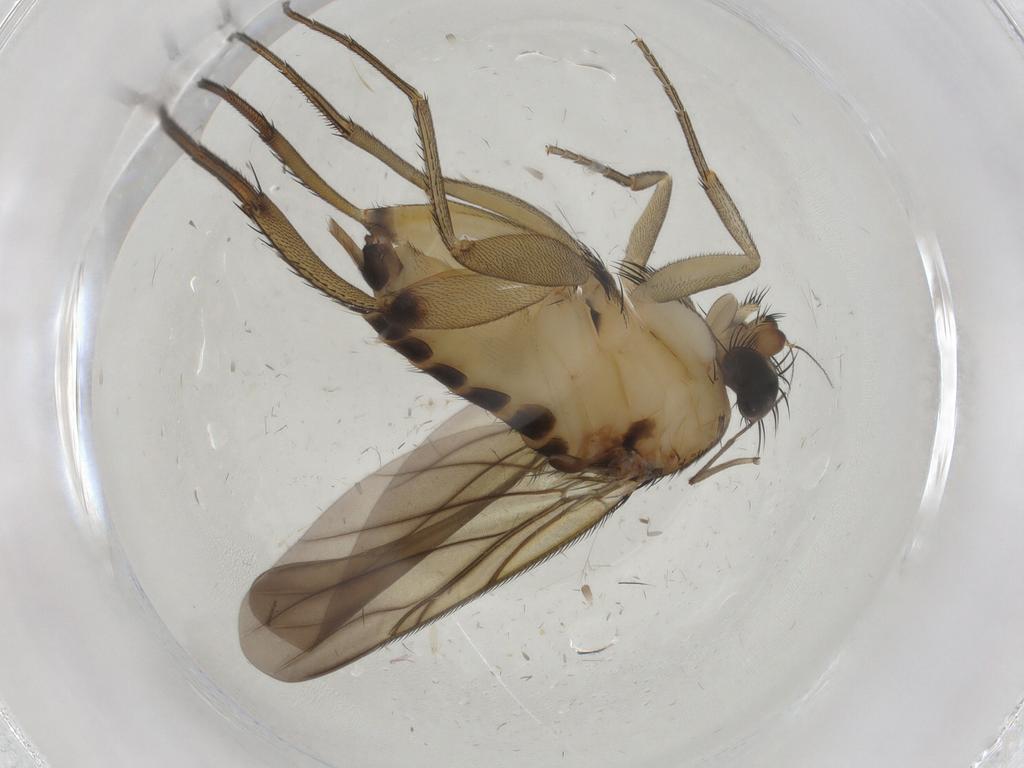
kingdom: Animalia
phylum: Arthropoda
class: Insecta
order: Diptera
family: Phoridae
